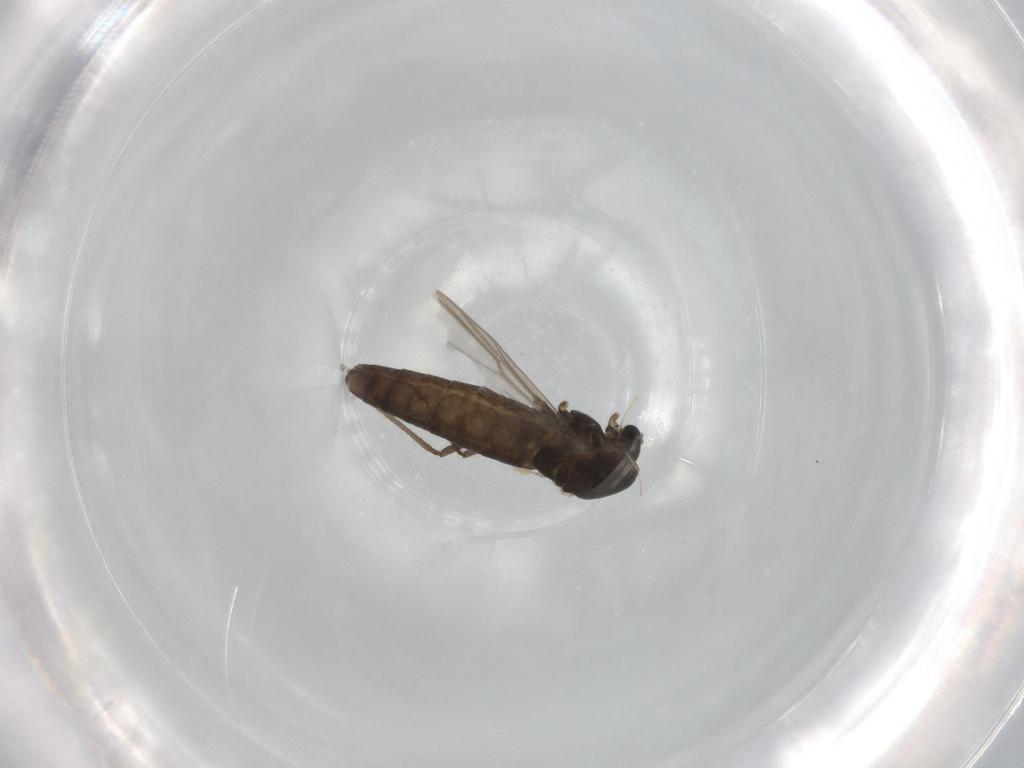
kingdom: Animalia
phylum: Arthropoda
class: Insecta
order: Diptera
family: Chironomidae
